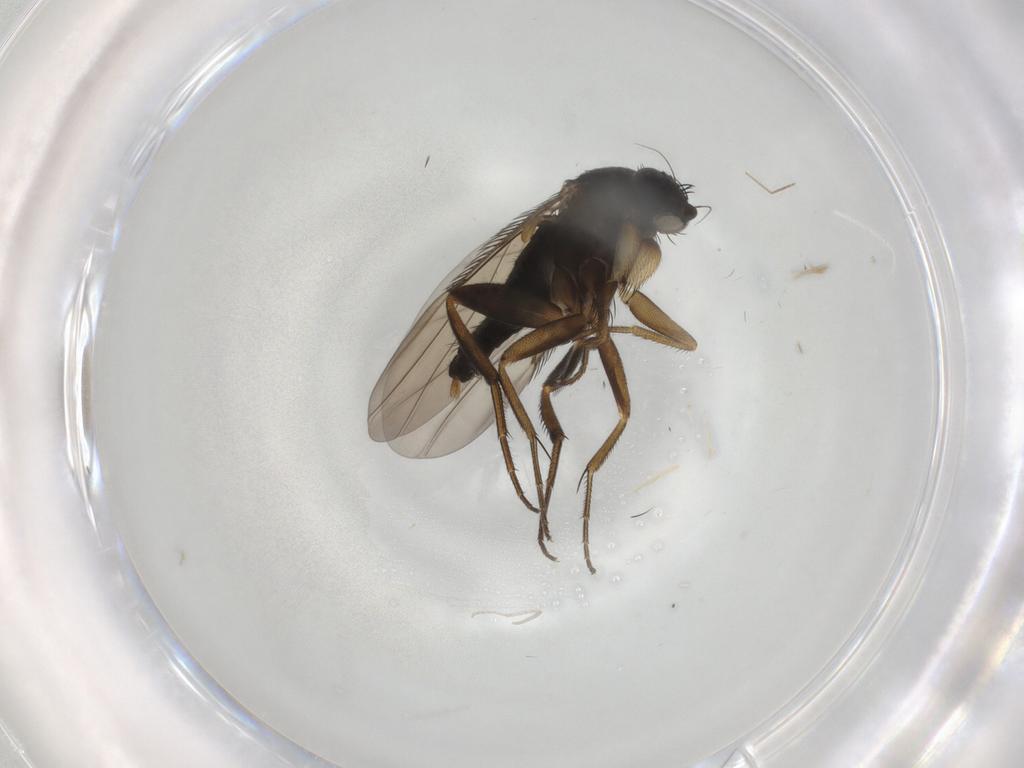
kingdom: Animalia
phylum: Arthropoda
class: Insecta
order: Diptera
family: Phoridae
